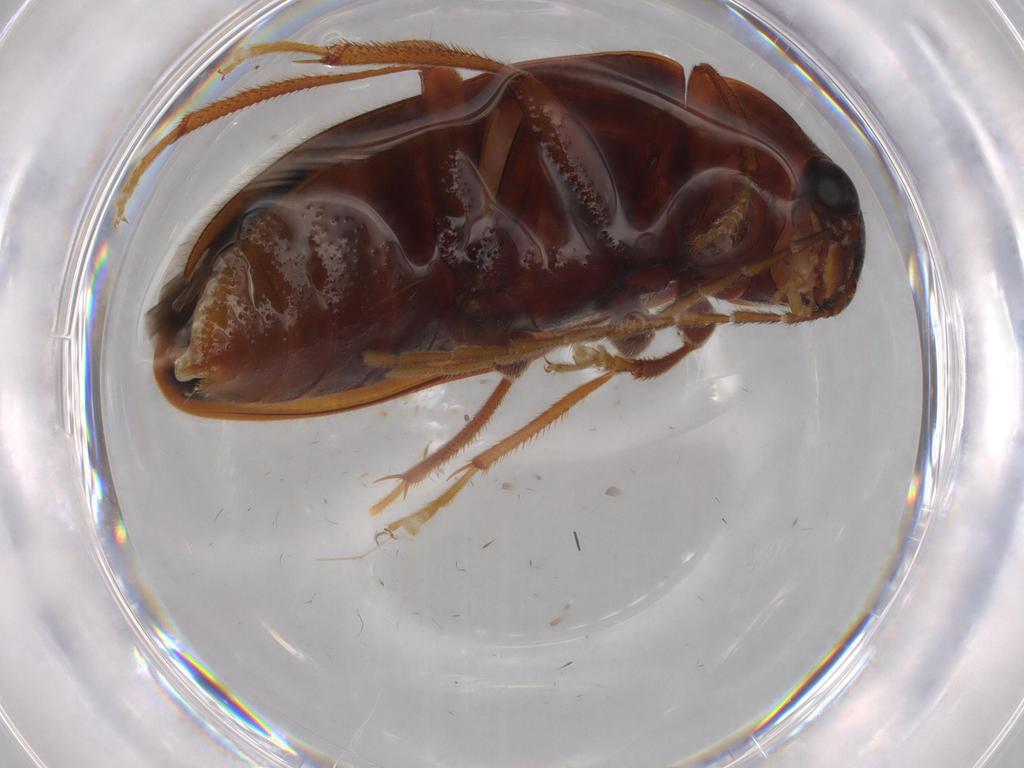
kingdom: Animalia
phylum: Arthropoda
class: Insecta
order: Coleoptera
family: Ptilodactylidae
